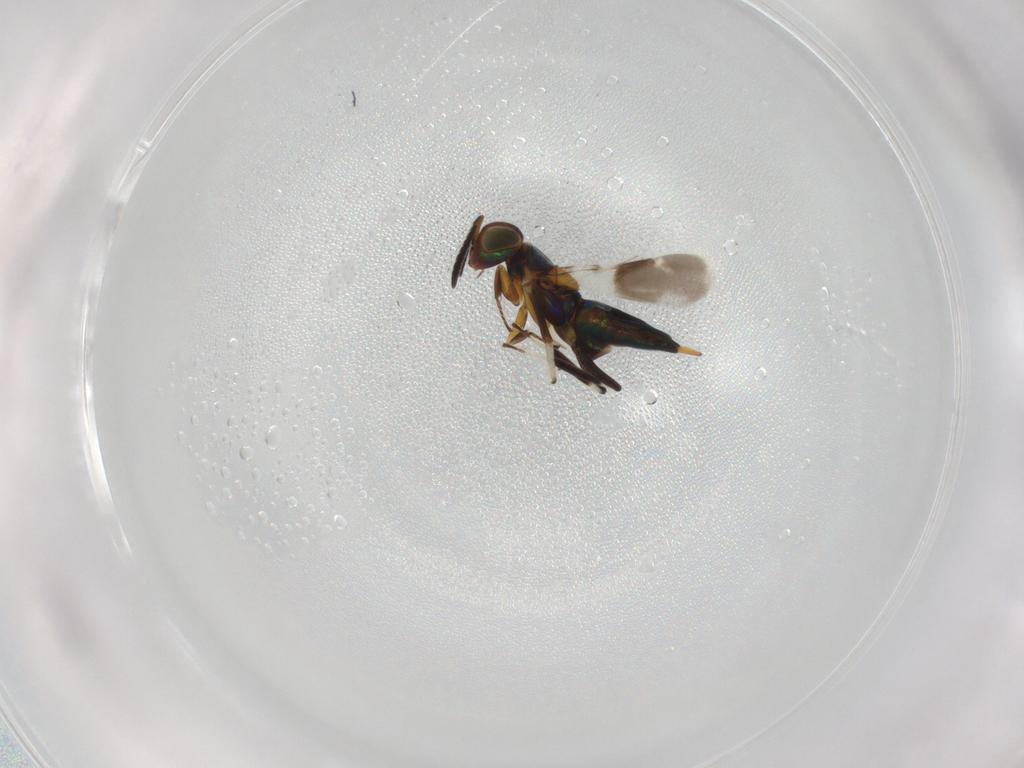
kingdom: Animalia
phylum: Arthropoda
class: Insecta
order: Hymenoptera
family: Encyrtidae
